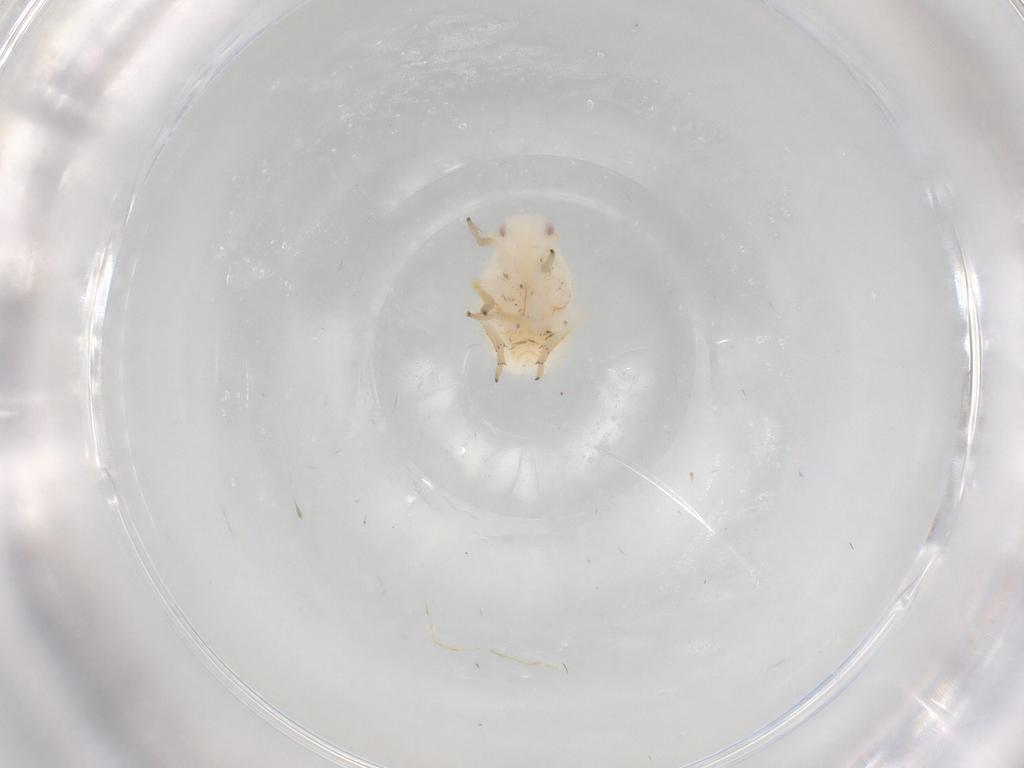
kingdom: Animalia
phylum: Arthropoda
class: Insecta
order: Hemiptera
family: Flatidae
